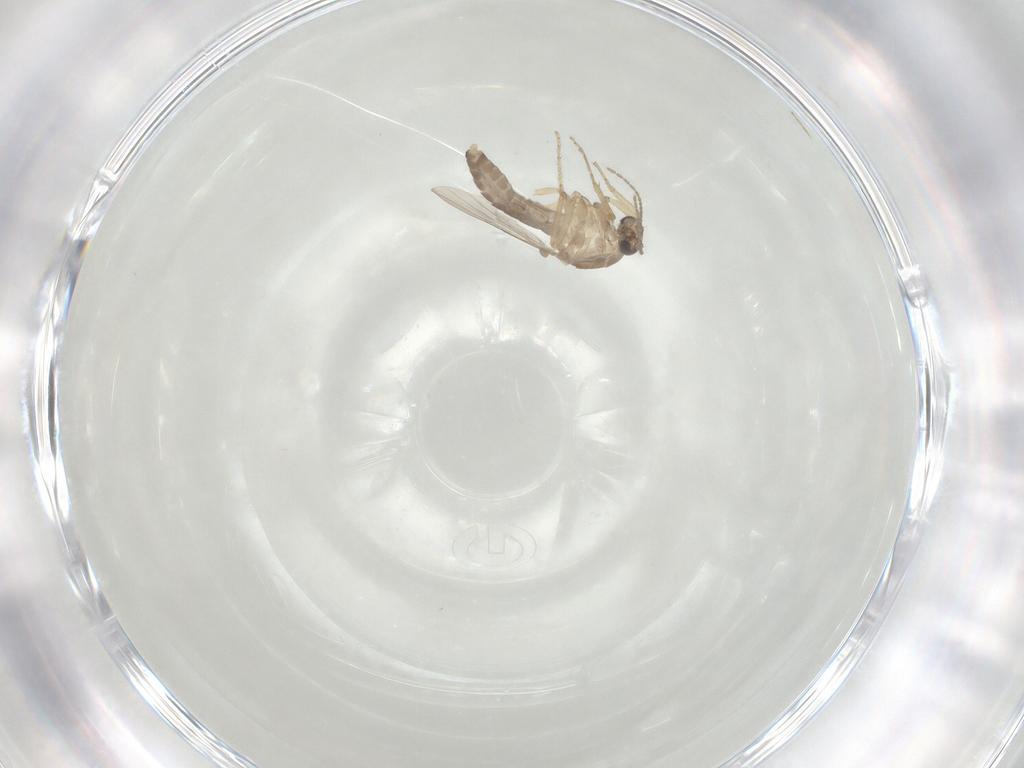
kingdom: Animalia
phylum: Arthropoda
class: Insecta
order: Diptera
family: Ceratopogonidae
